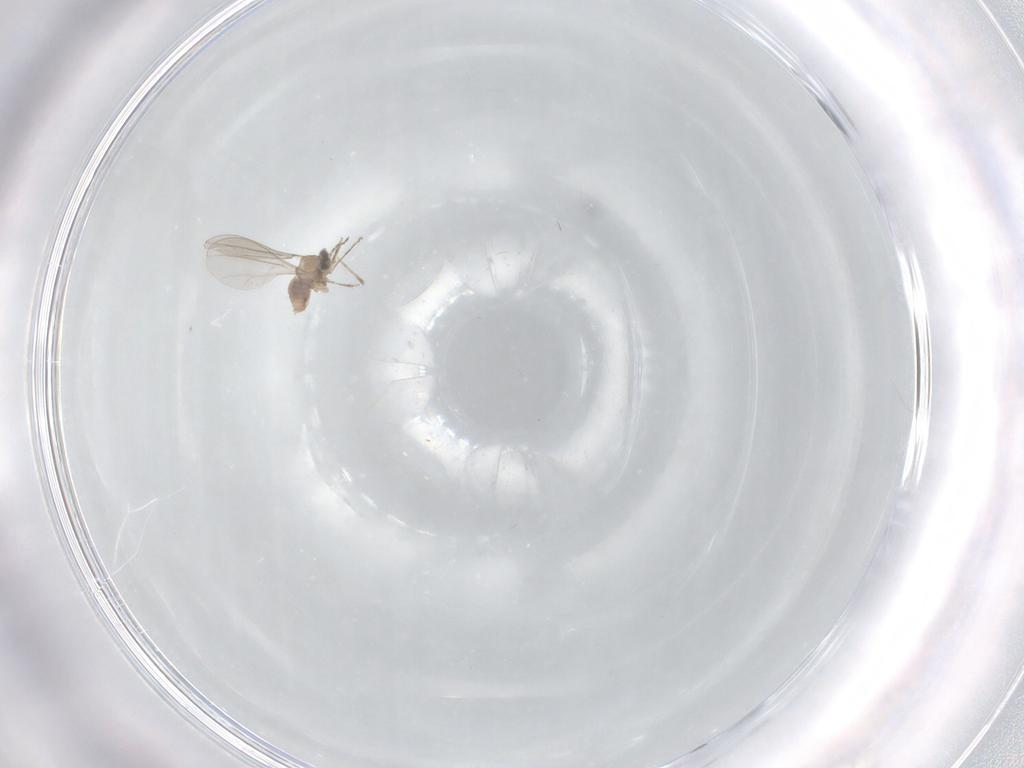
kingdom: Animalia
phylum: Arthropoda
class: Insecta
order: Diptera
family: Cecidomyiidae
